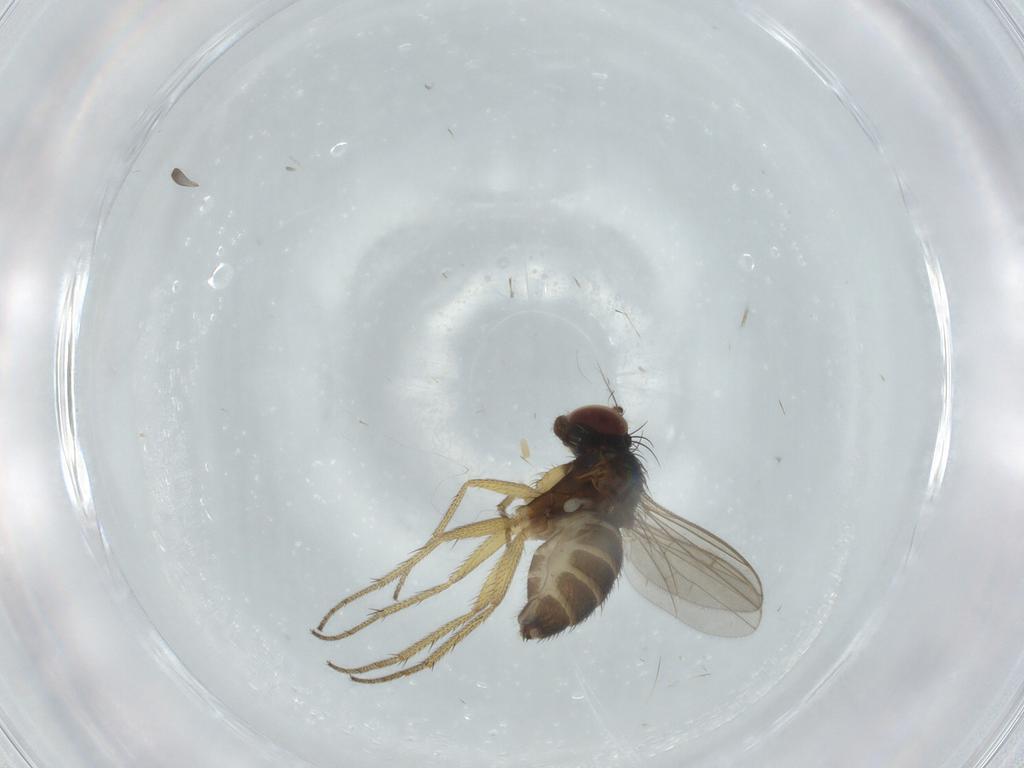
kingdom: Animalia
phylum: Arthropoda
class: Insecta
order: Diptera
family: Dolichopodidae
